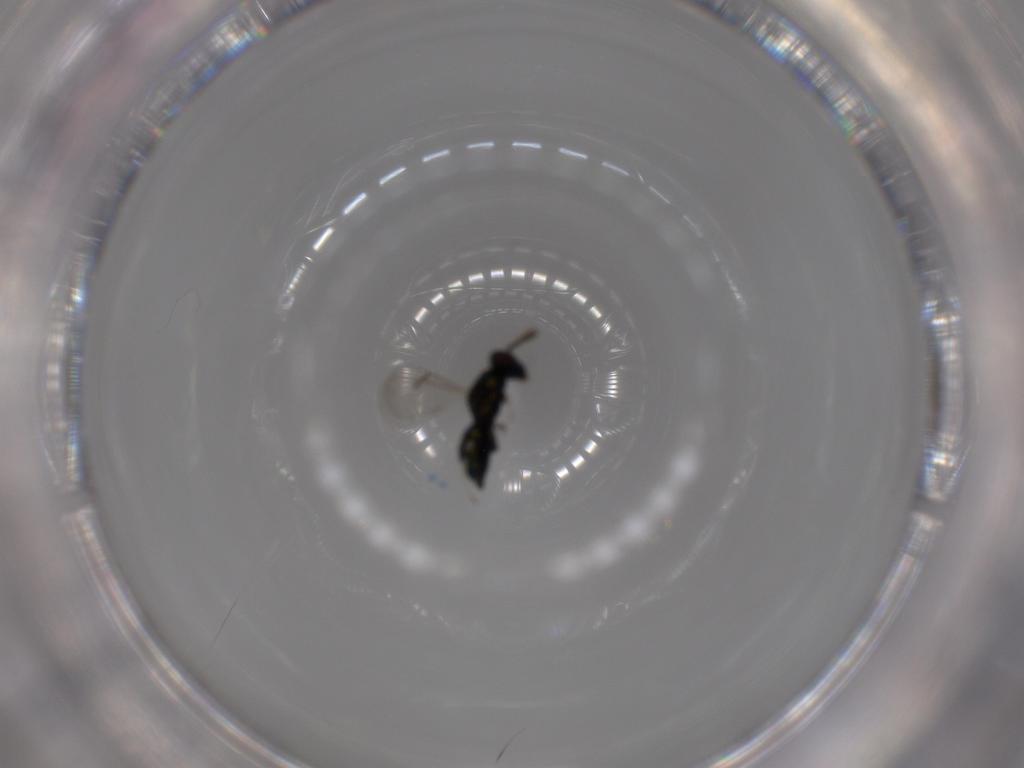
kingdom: Animalia
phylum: Arthropoda
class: Insecta
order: Hymenoptera
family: Eulophidae
